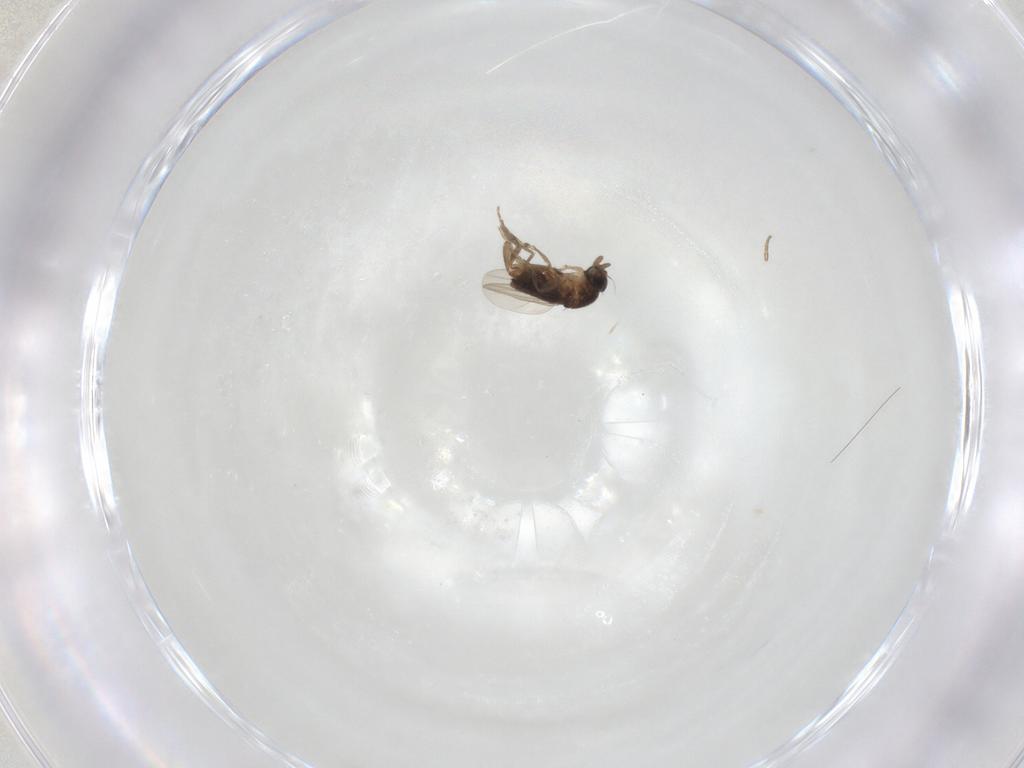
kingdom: Animalia
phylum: Arthropoda
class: Insecta
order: Diptera
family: Phoridae
